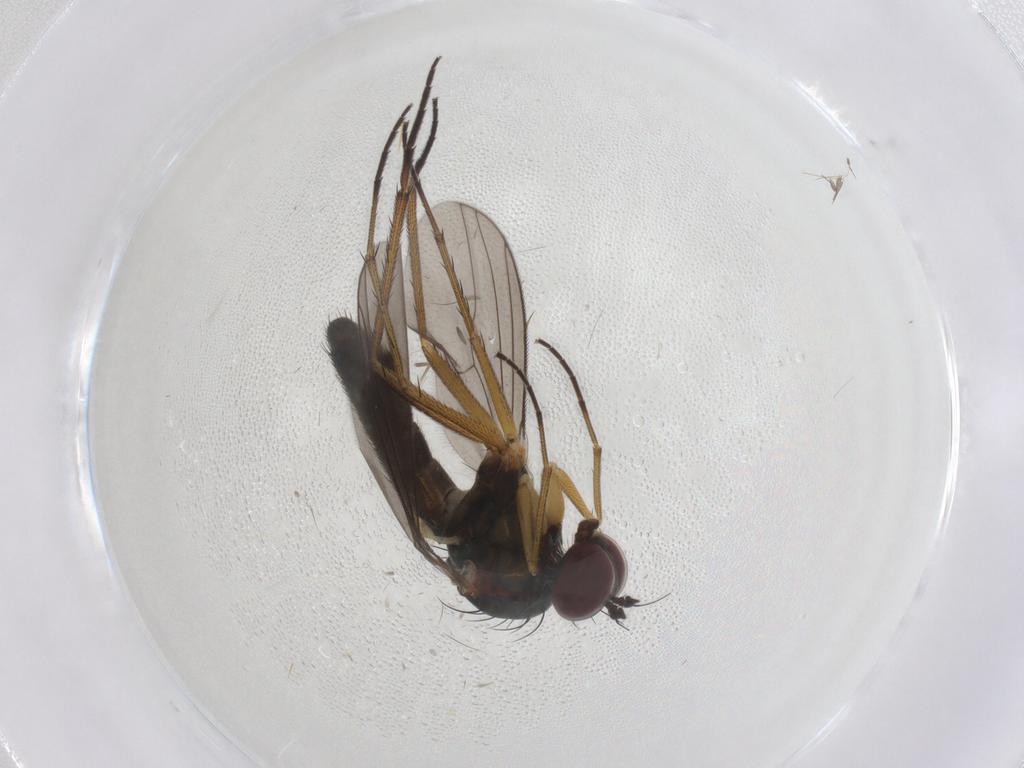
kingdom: Animalia
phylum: Arthropoda
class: Insecta
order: Diptera
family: Dolichopodidae
